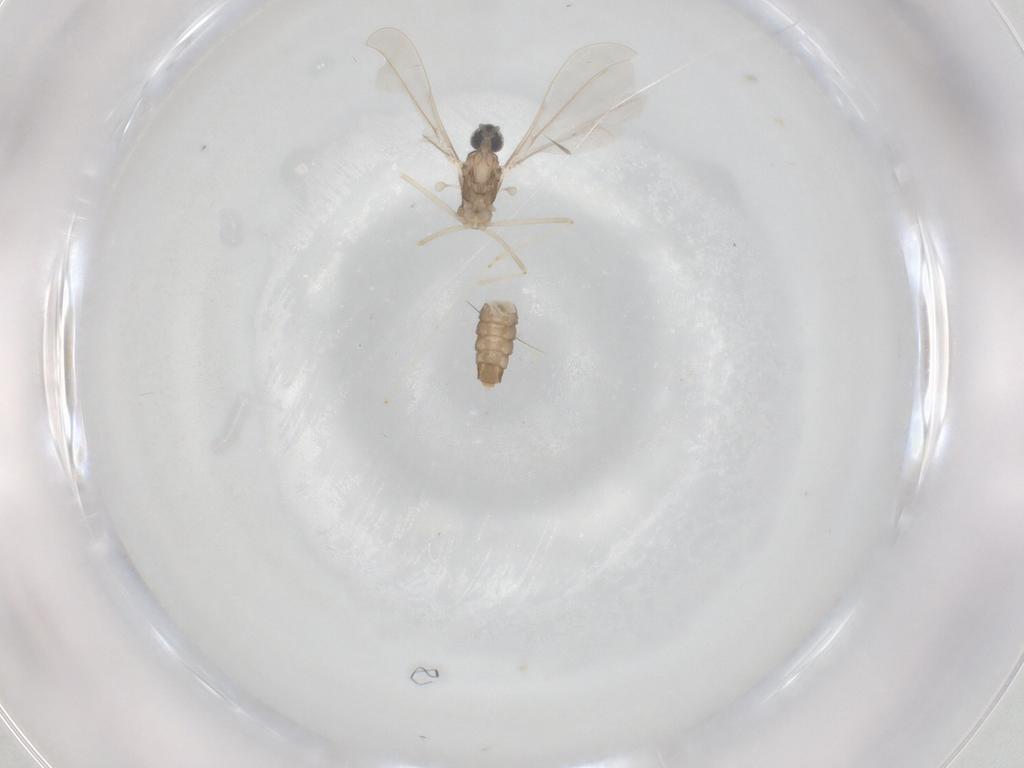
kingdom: Animalia
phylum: Arthropoda
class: Insecta
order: Diptera
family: Cecidomyiidae
